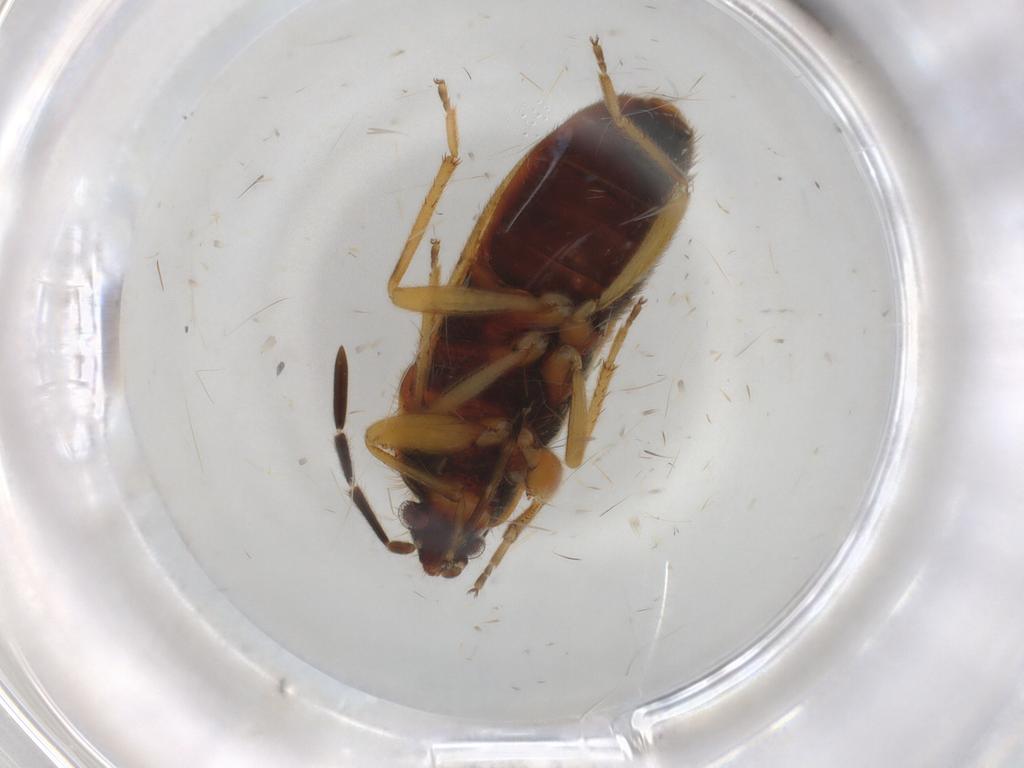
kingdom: Animalia
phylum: Arthropoda
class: Insecta
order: Hemiptera
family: Rhyparochromidae
